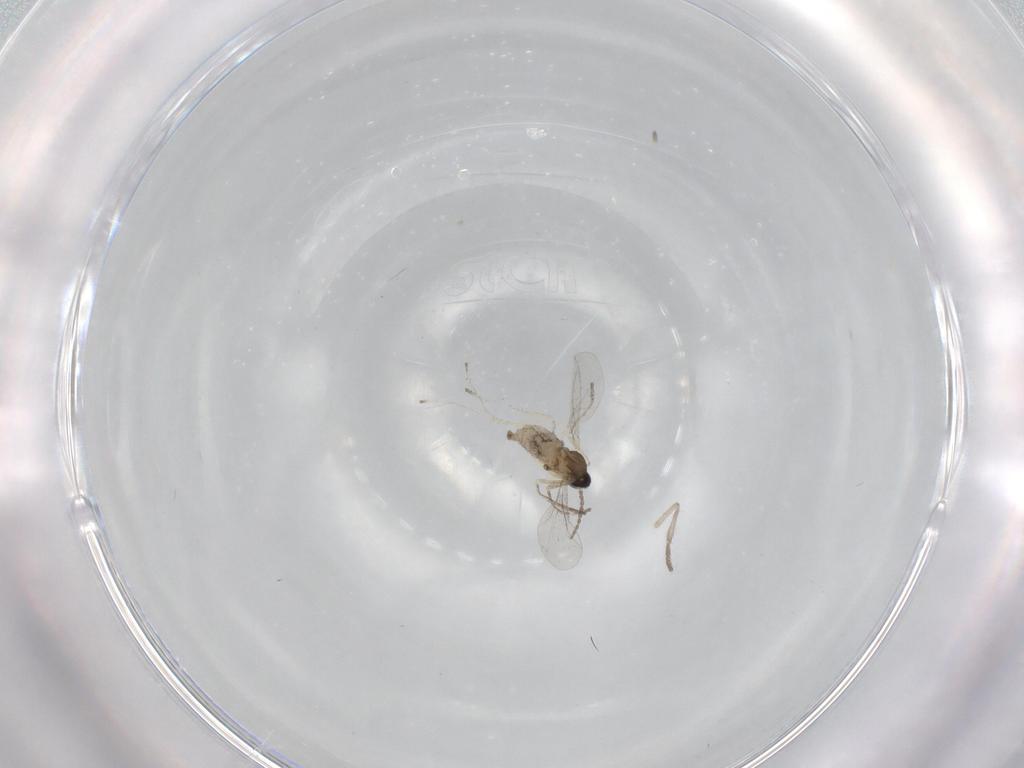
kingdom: Animalia
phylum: Arthropoda
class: Insecta
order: Diptera
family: Cecidomyiidae
